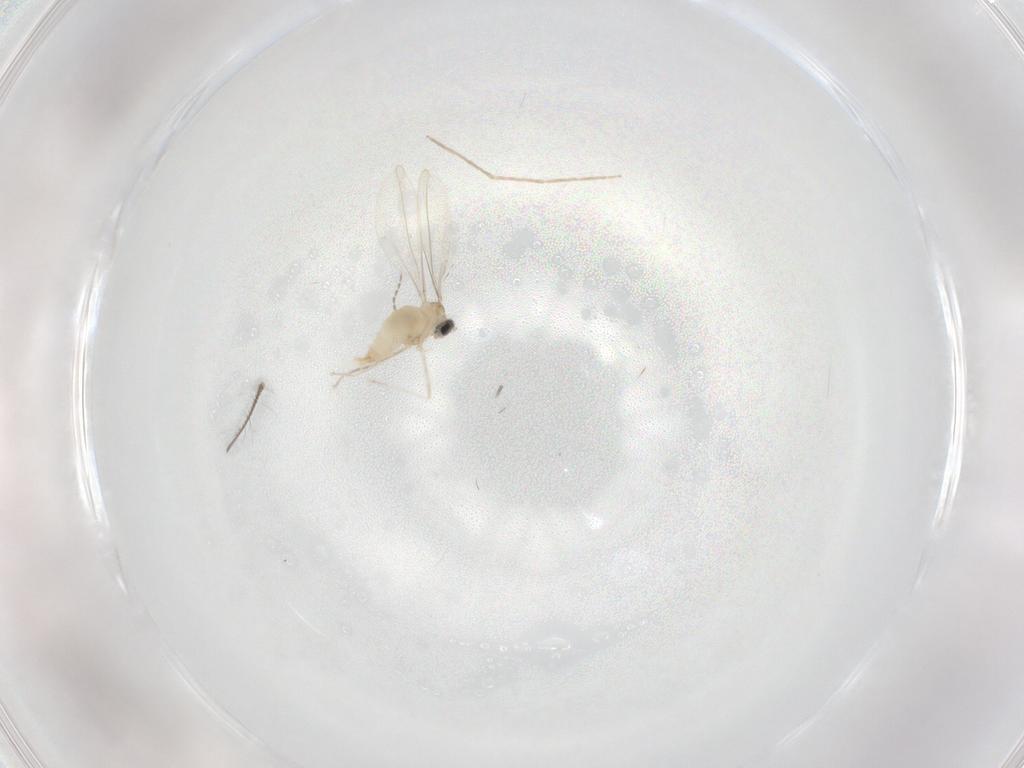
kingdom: Animalia
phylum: Arthropoda
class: Insecta
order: Diptera
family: Chironomidae
